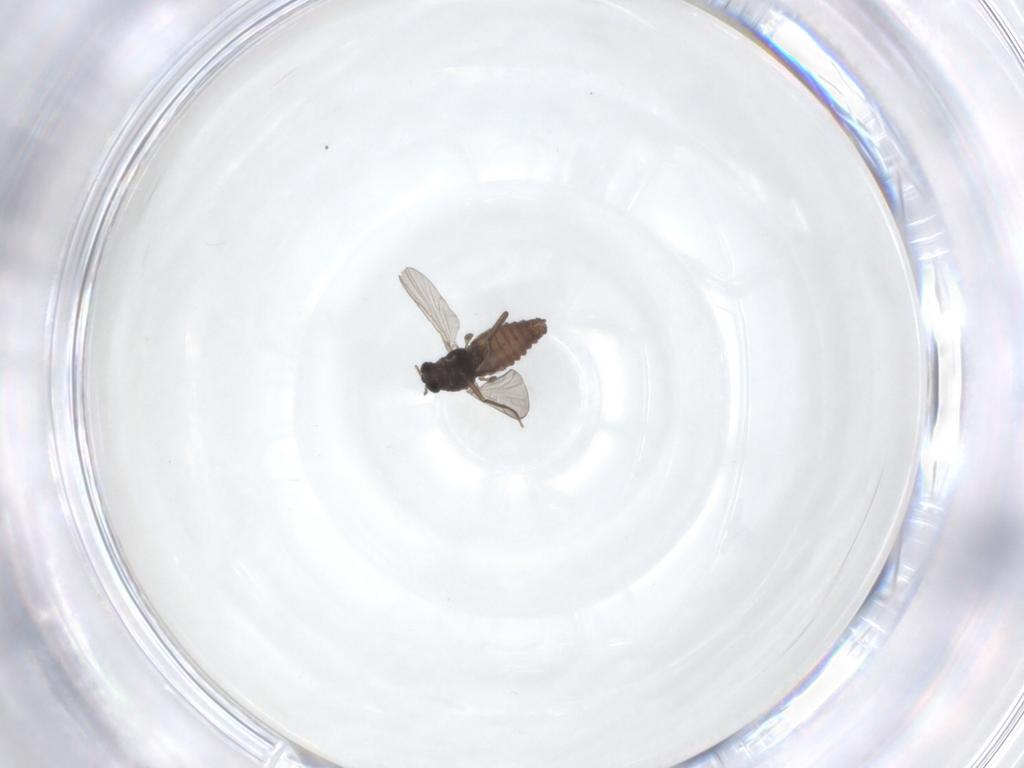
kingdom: Animalia
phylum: Arthropoda
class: Insecta
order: Diptera
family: Chironomidae
